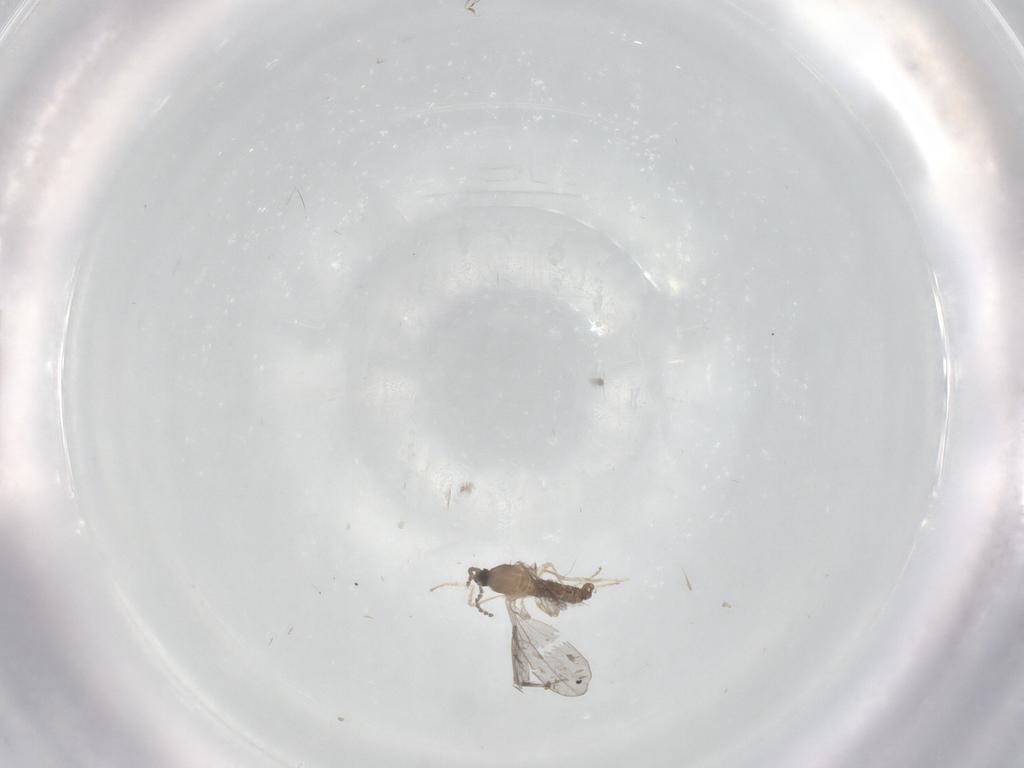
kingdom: Animalia
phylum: Arthropoda
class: Insecta
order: Diptera
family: Cecidomyiidae
